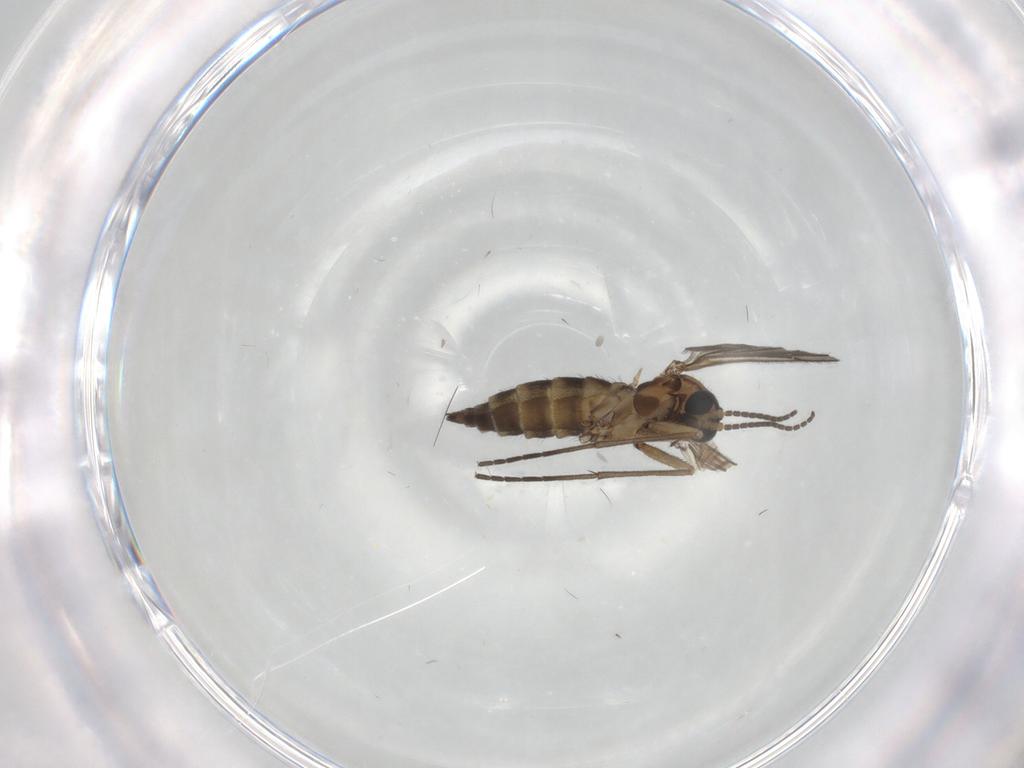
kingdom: Animalia
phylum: Arthropoda
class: Insecta
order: Diptera
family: Sciaridae
